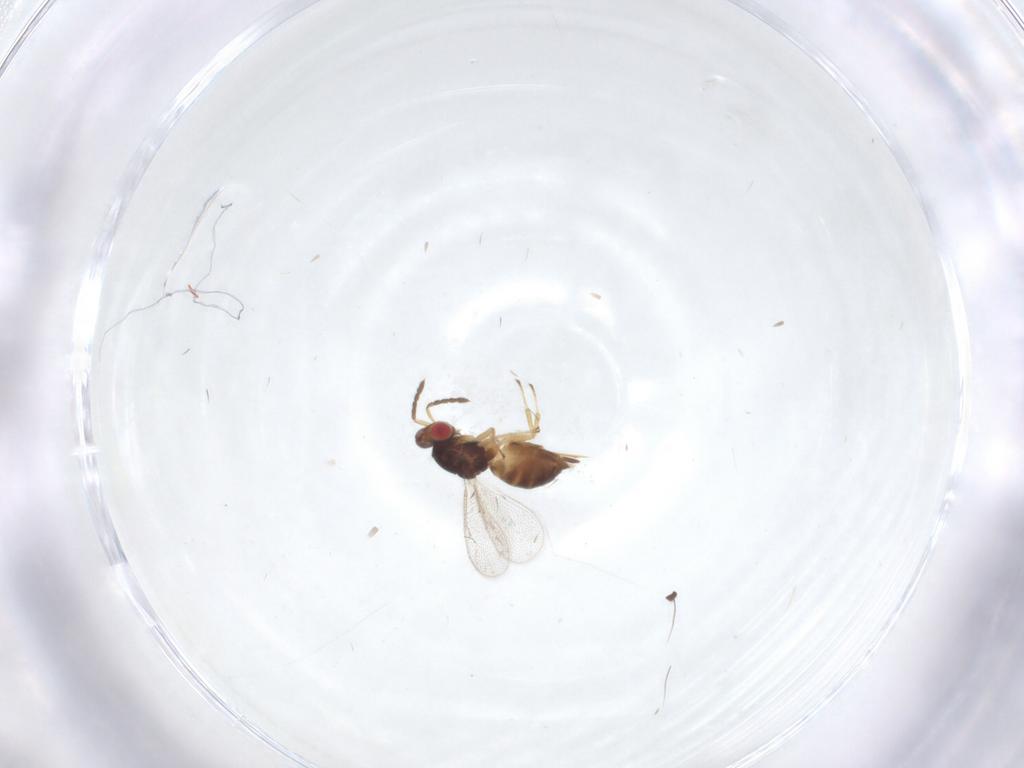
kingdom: Animalia
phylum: Arthropoda
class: Insecta
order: Hymenoptera
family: Eulophidae
